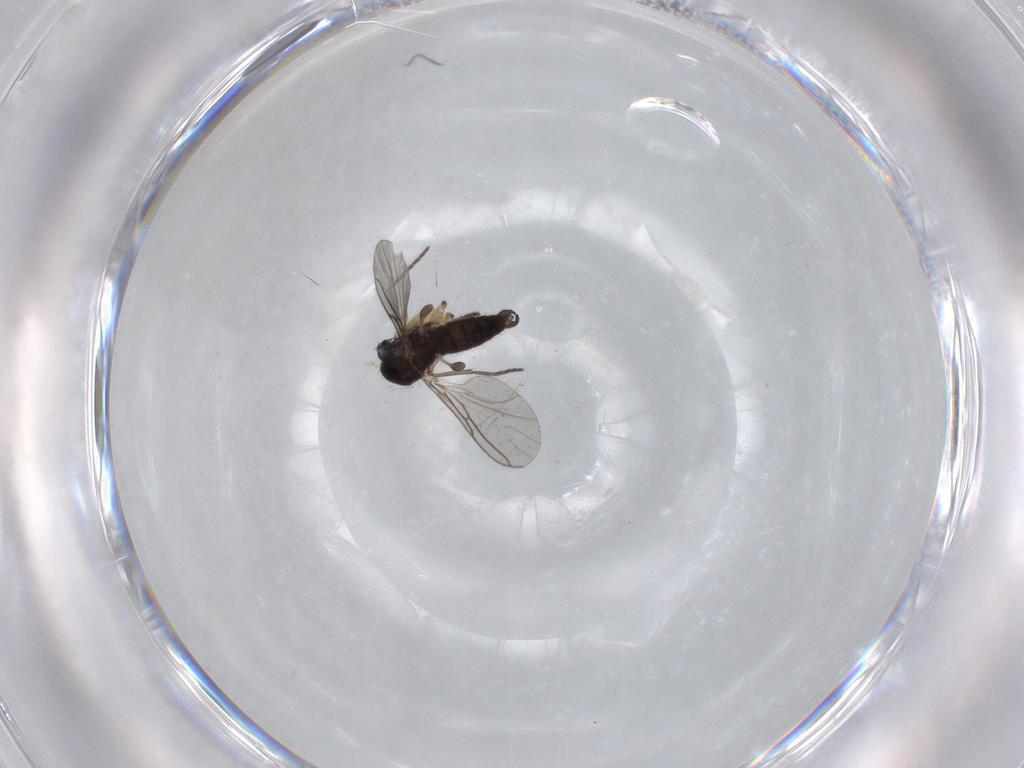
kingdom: Animalia
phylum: Arthropoda
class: Insecta
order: Diptera
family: Sciaridae
